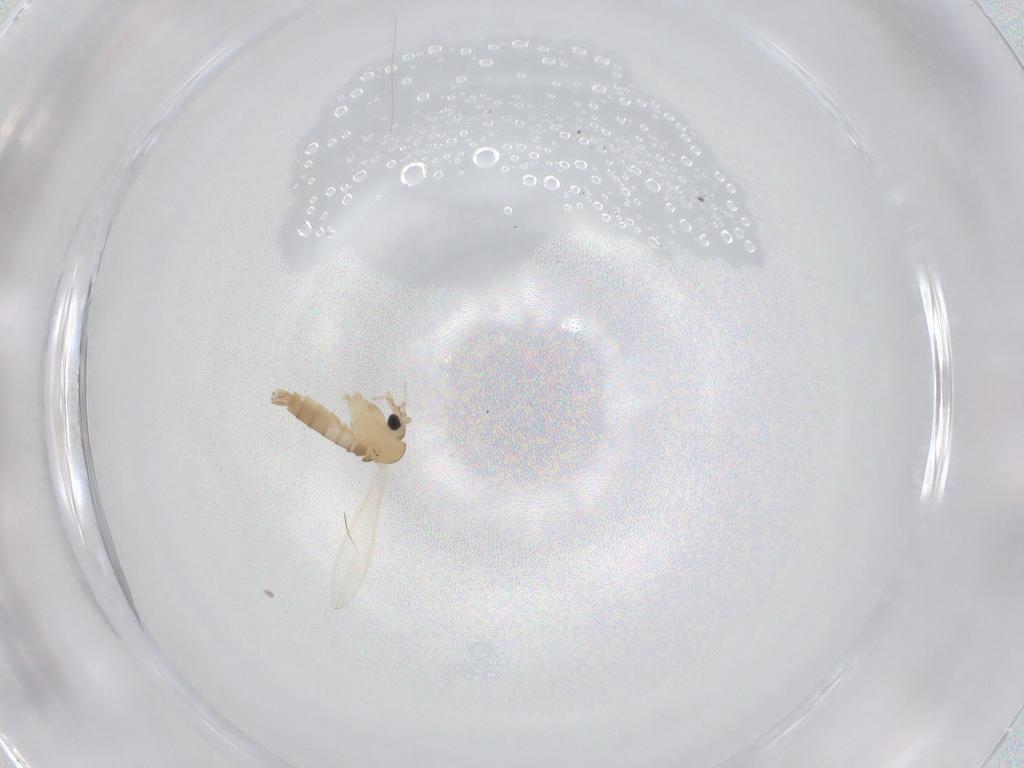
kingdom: Animalia
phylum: Arthropoda
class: Insecta
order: Diptera
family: Psychodidae
